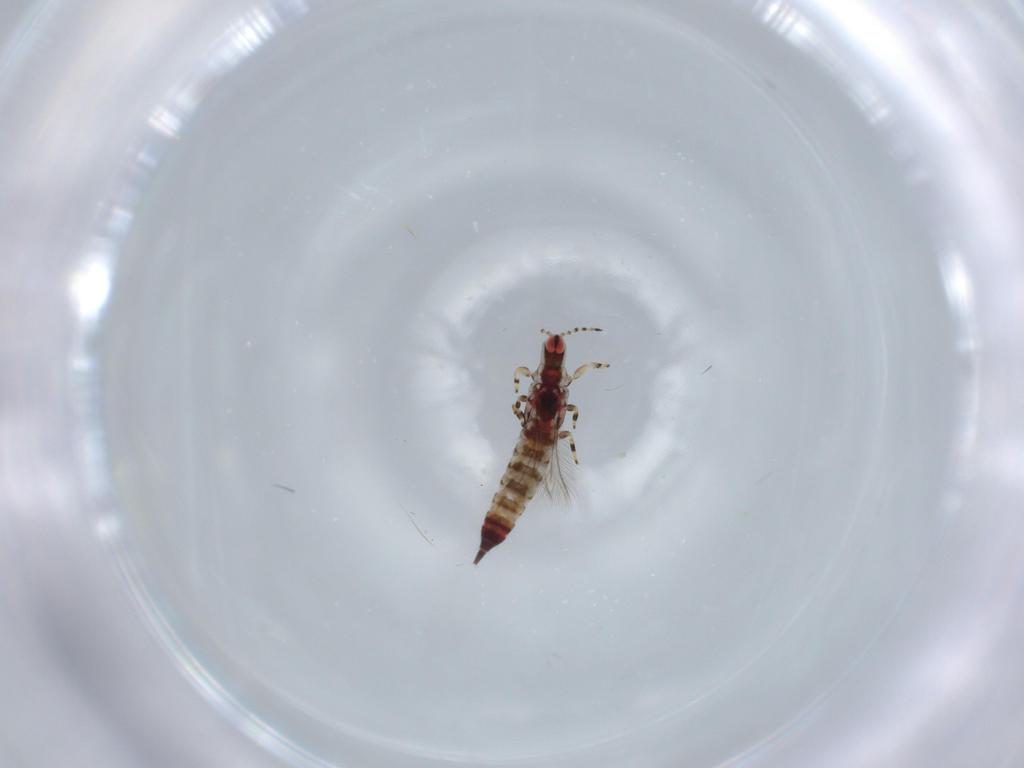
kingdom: Animalia
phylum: Arthropoda
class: Insecta
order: Thysanoptera
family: Phlaeothripidae
